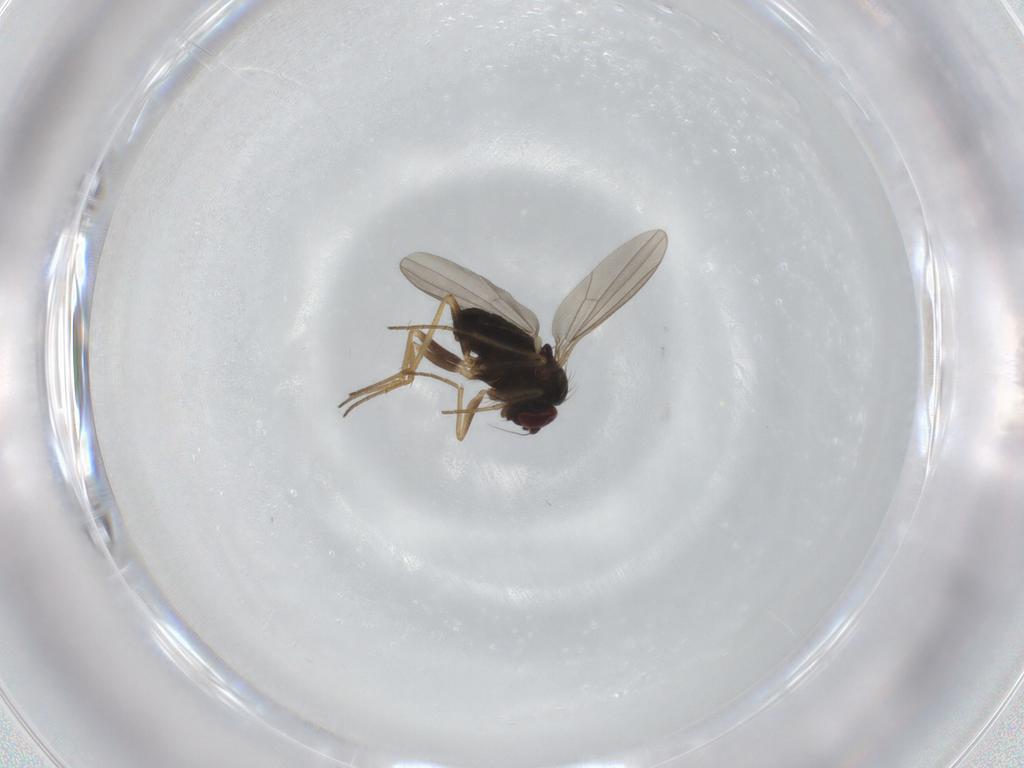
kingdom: Animalia
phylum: Arthropoda
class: Insecta
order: Diptera
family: Dolichopodidae
